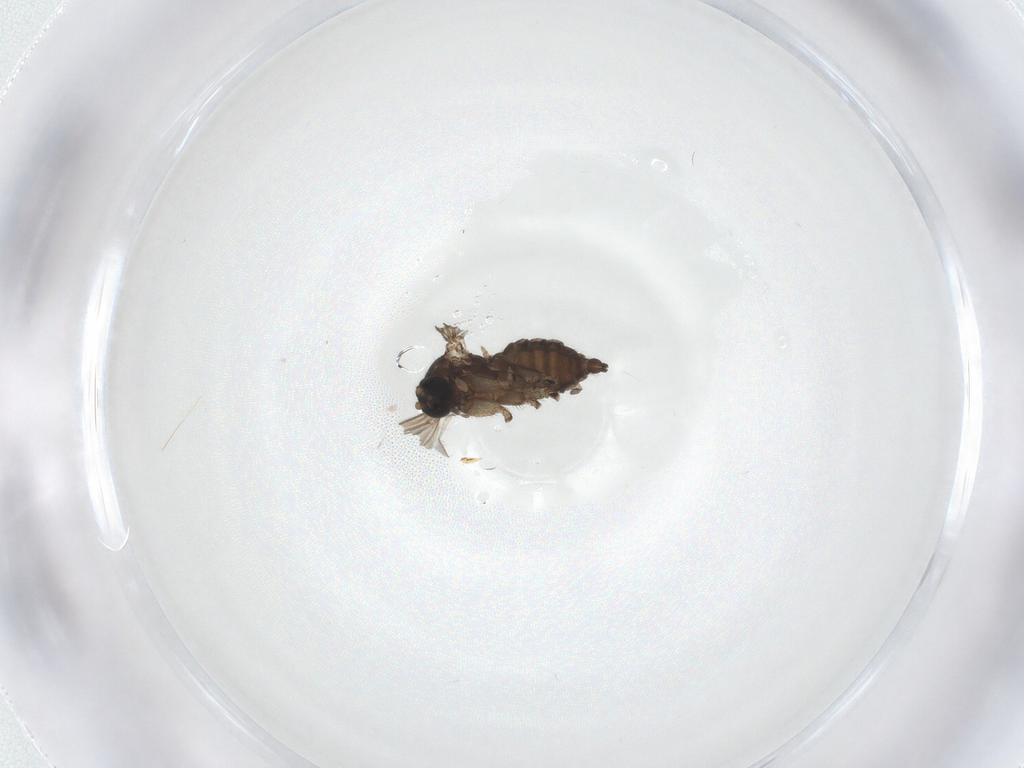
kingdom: Animalia
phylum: Arthropoda
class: Insecta
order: Diptera
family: Sciaridae
